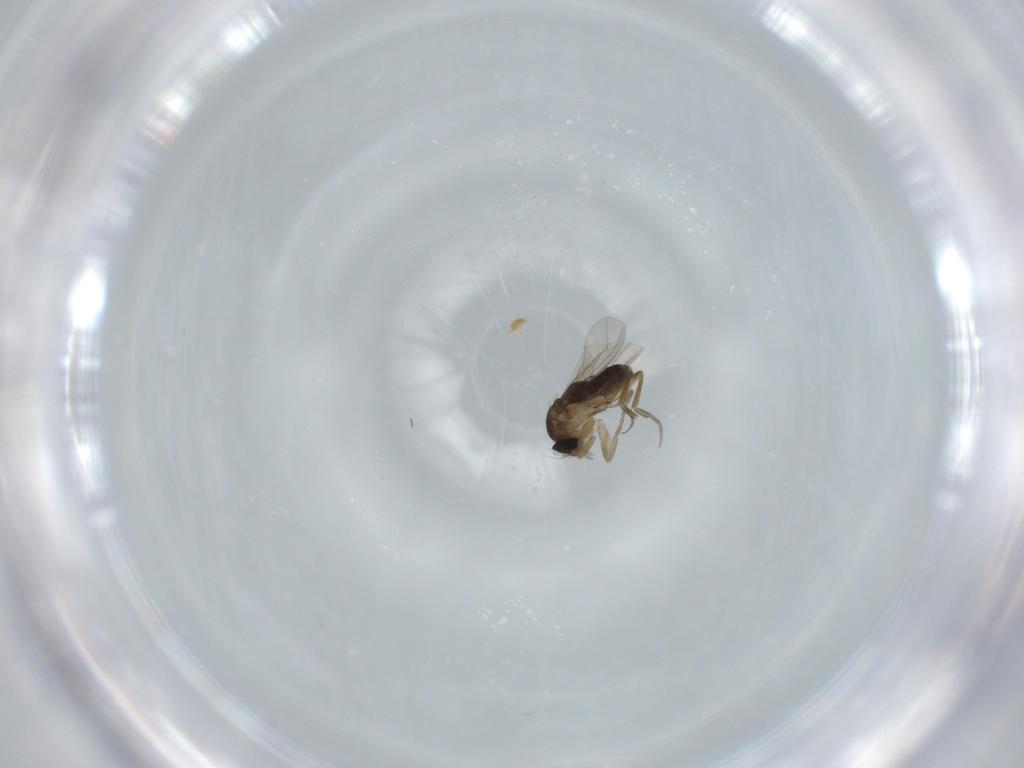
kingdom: Animalia
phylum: Arthropoda
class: Insecta
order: Diptera
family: Phoridae
